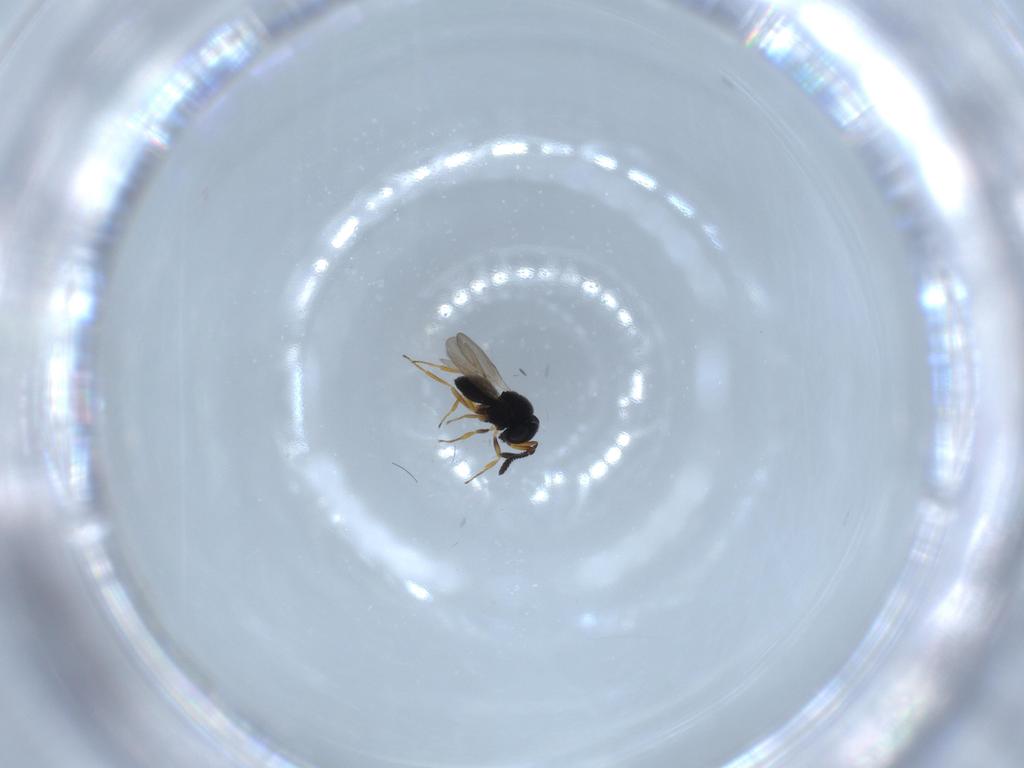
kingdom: Animalia
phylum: Arthropoda
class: Insecta
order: Hymenoptera
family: Scelionidae
